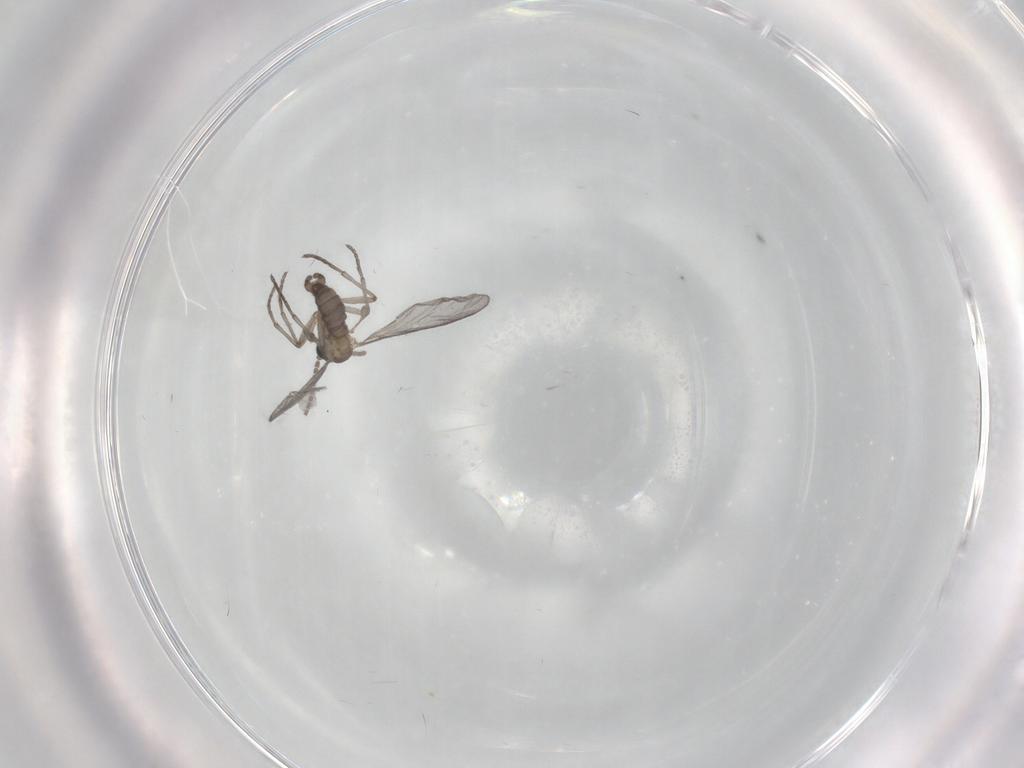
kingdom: Animalia
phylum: Arthropoda
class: Insecta
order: Diptera
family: Sciaridae
